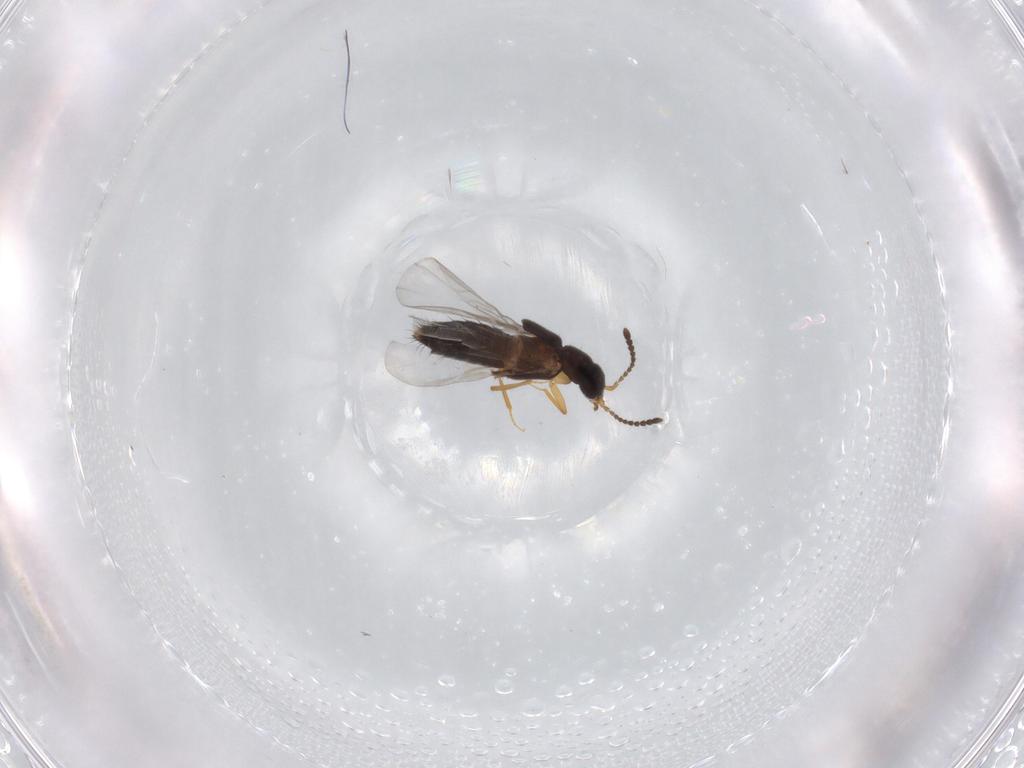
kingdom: Animalia
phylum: Arthropoda
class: Insecta
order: Coleoptera
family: Staphylinidae
